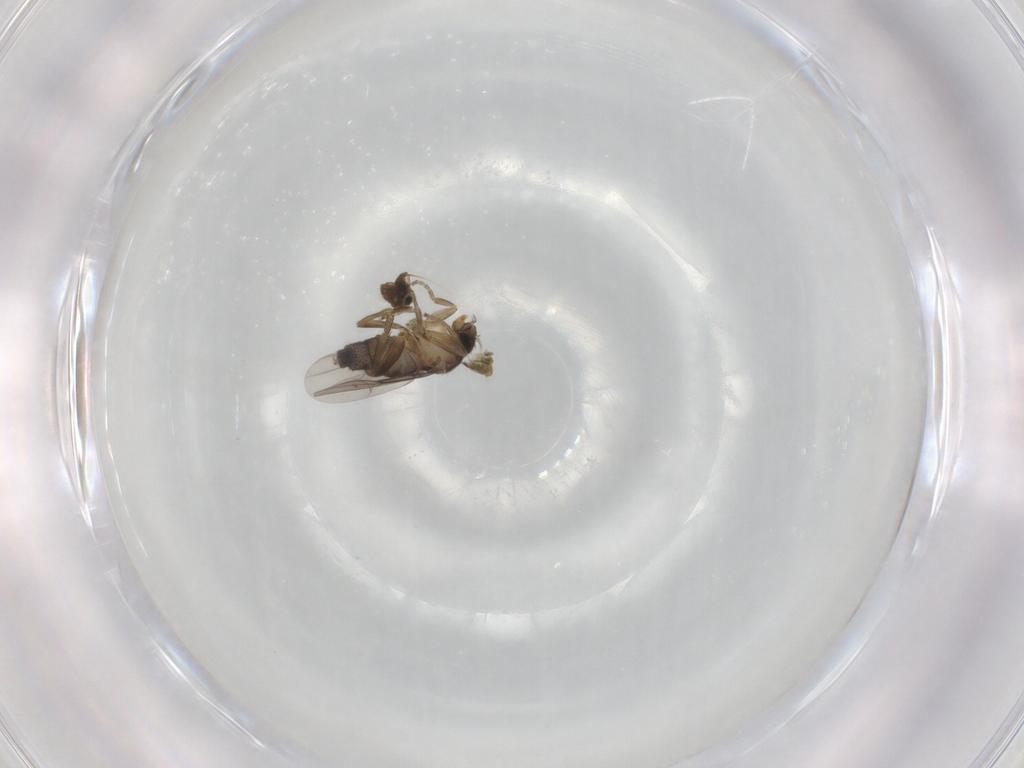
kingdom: Animalia
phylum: Arthropoda
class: Insecta
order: Diptera
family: Chironomidae
